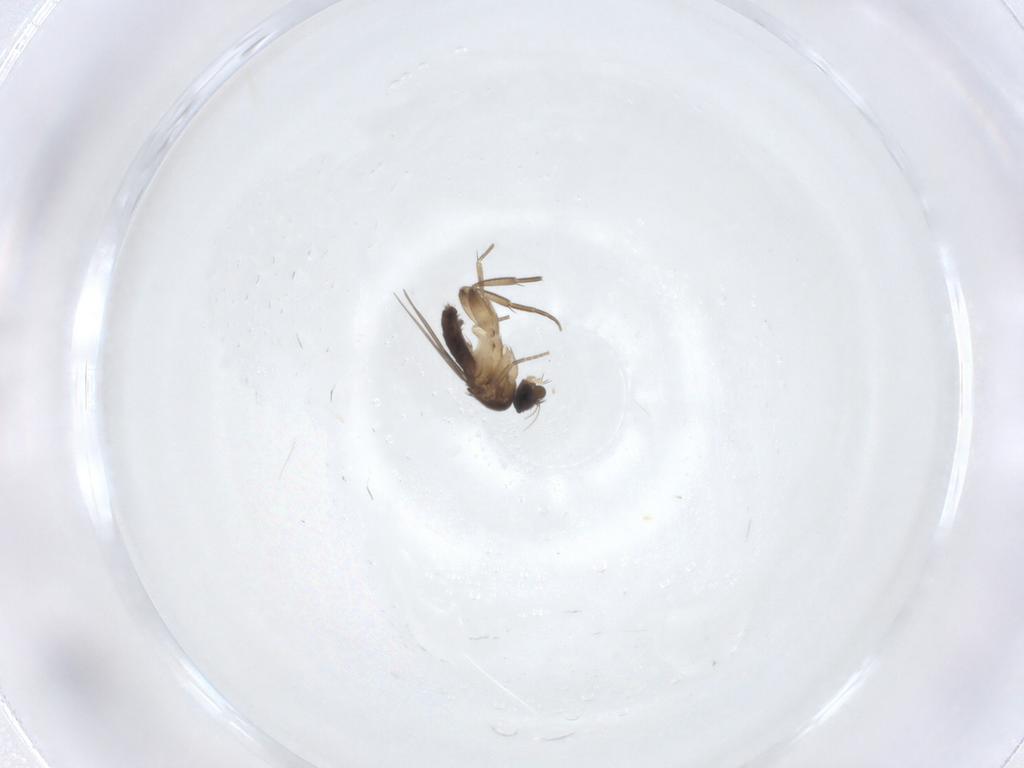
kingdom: Animalia
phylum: Arthropoda
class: Insecta
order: Diptera
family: Phoridae
